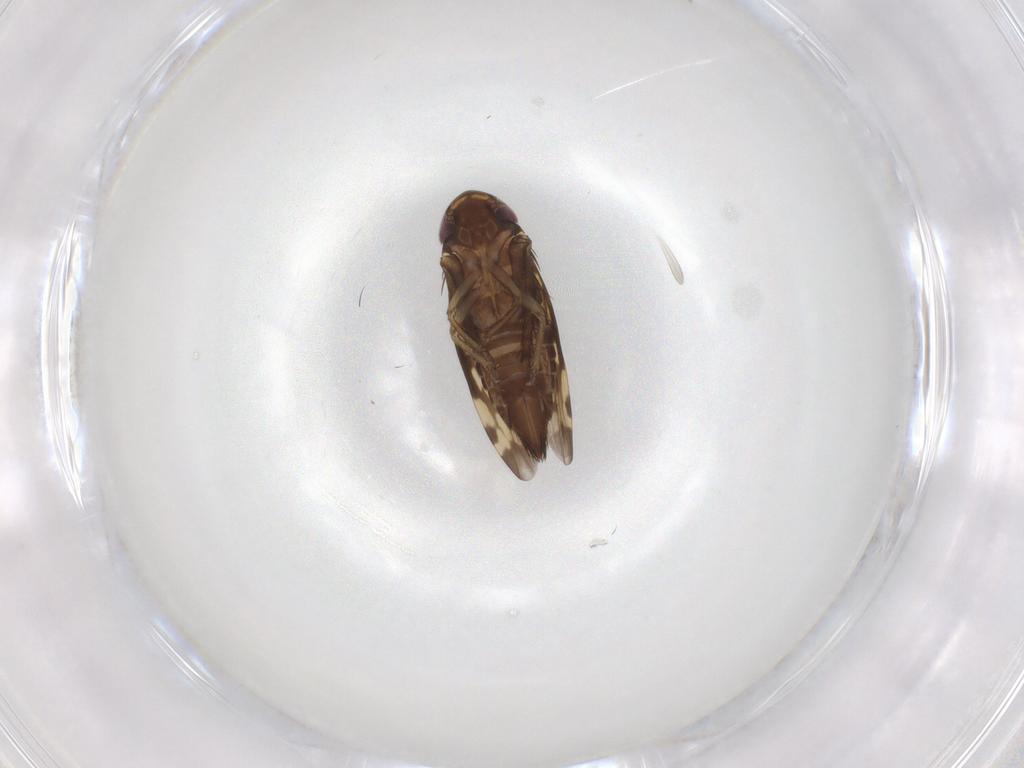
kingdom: Animalia
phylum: Arthropoda
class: Insecta
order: Hemiptera
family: Cicadellidae
